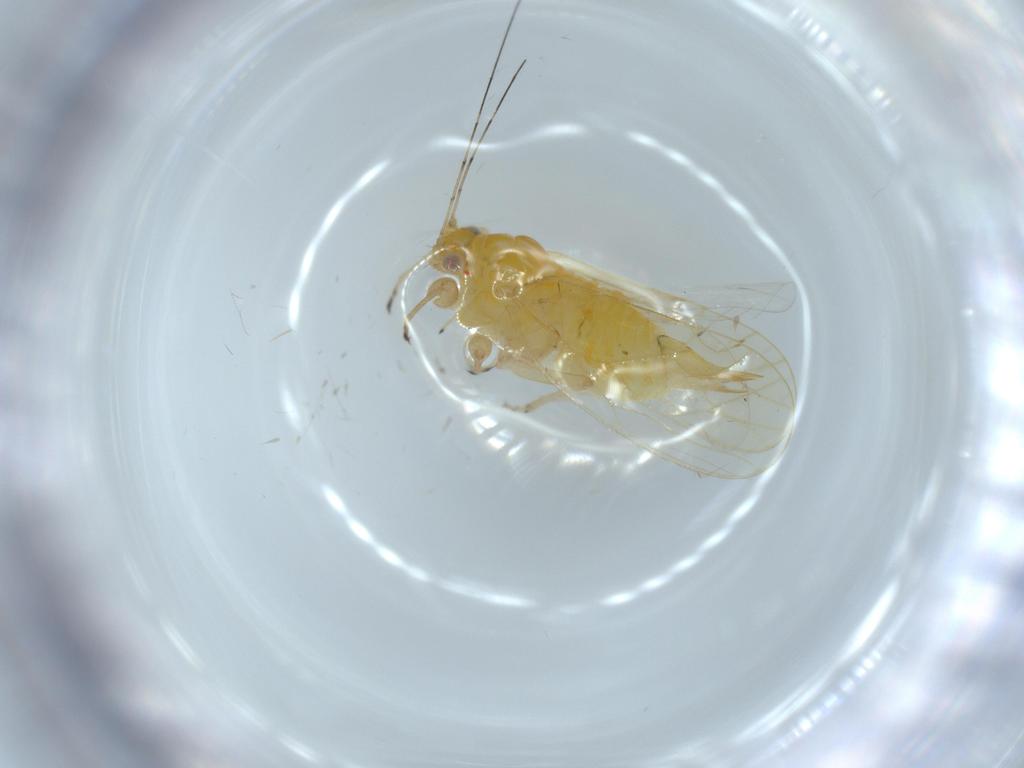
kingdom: Animalia
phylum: Arthropoda
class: Insecta
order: Hemiptera
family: Psyllidae
